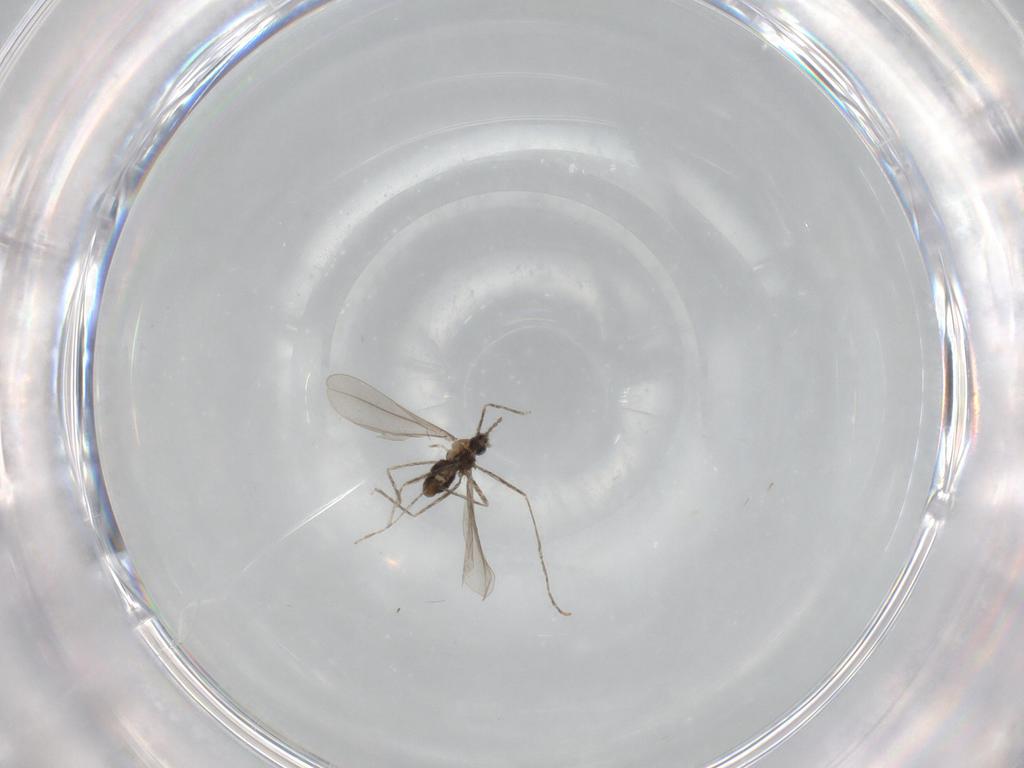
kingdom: Animalia
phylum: Arthropoda
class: Insecta
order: Diptera
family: Cecidomyiidae
